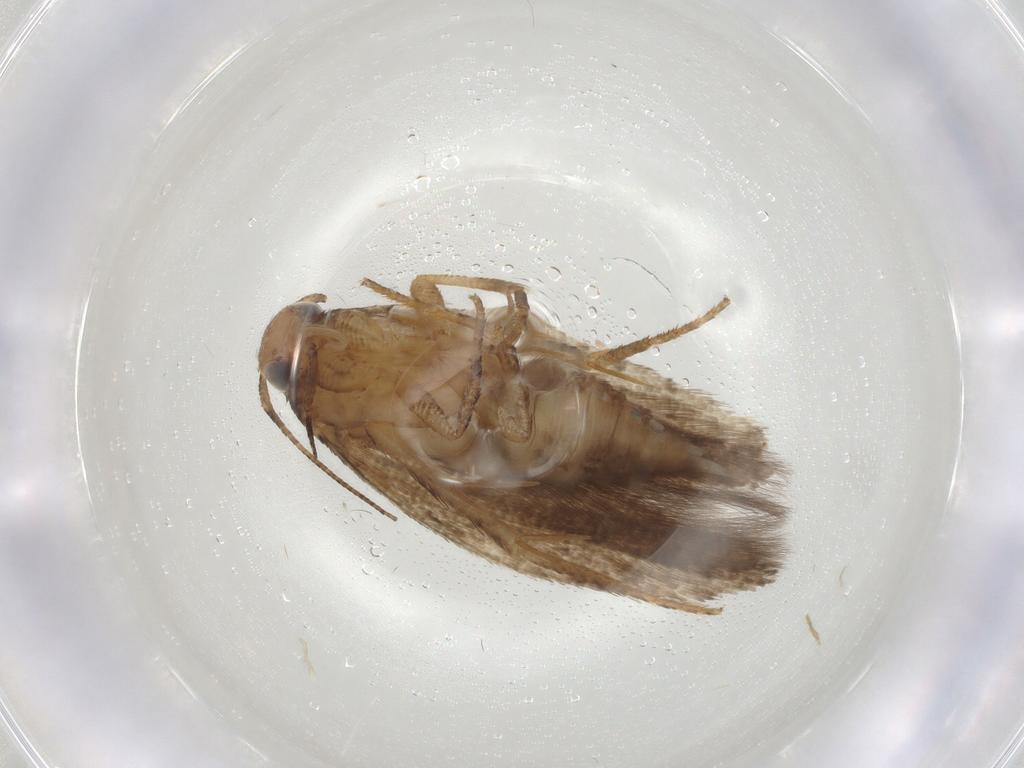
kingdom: Animalia
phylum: Arthropoda
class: Insecta
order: Lepidoptera
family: Gelechiidae
